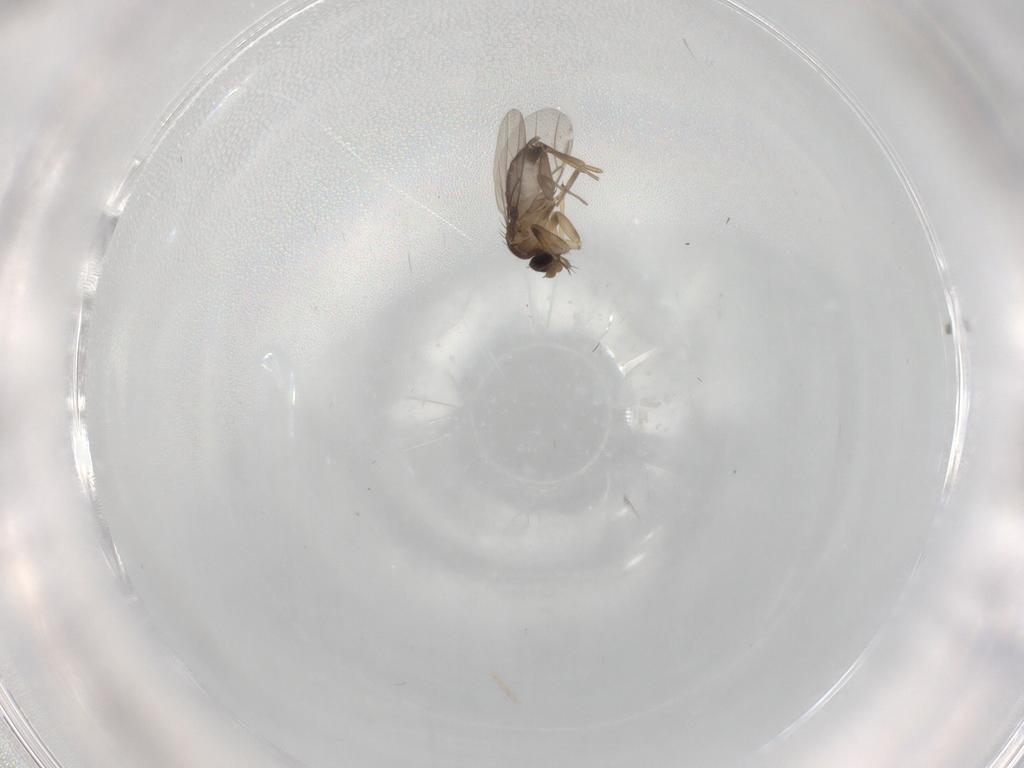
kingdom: Animalia
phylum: Arthropoda
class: Insecta
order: Diptera
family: Phoridae
